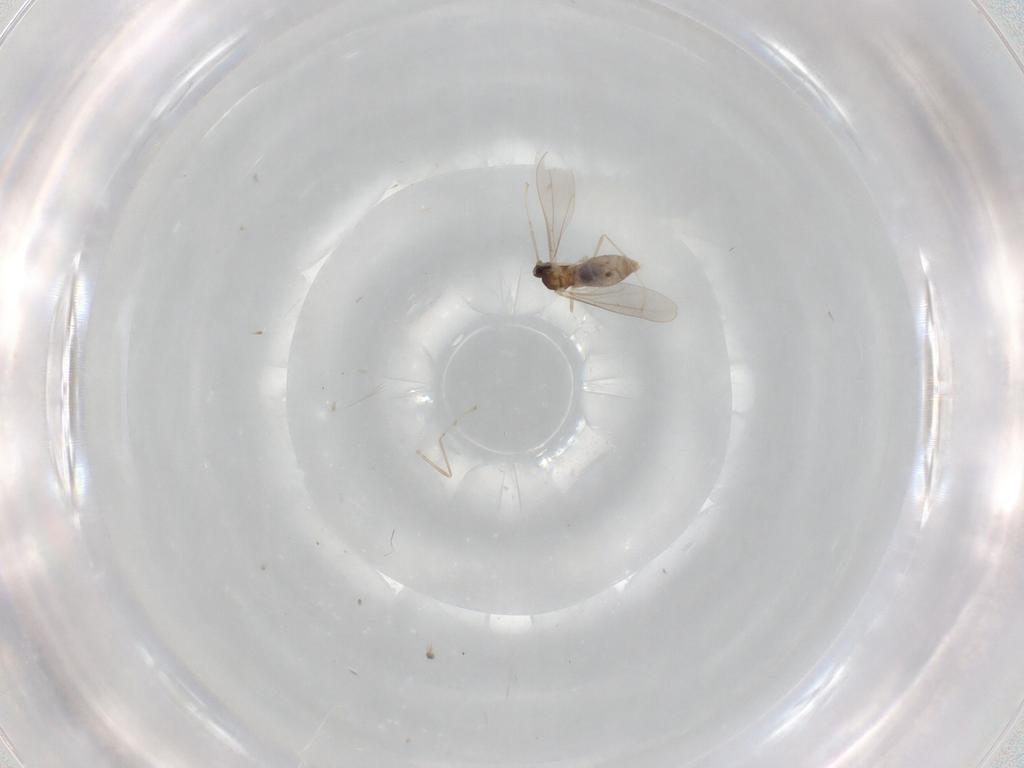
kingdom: Animalia
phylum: Arthropoda
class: Insecta
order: Diptera
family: Cecidomyiidae
